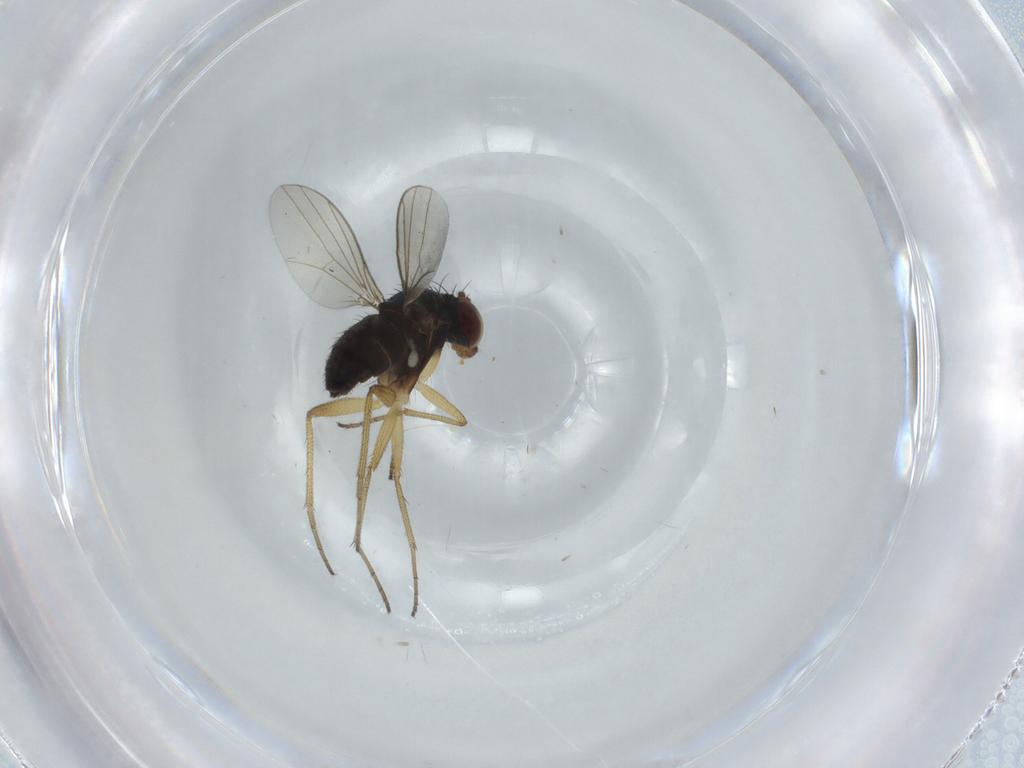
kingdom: Animalia
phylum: Arthropoda
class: Insecta
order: Diptera
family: Dolichopodidae
